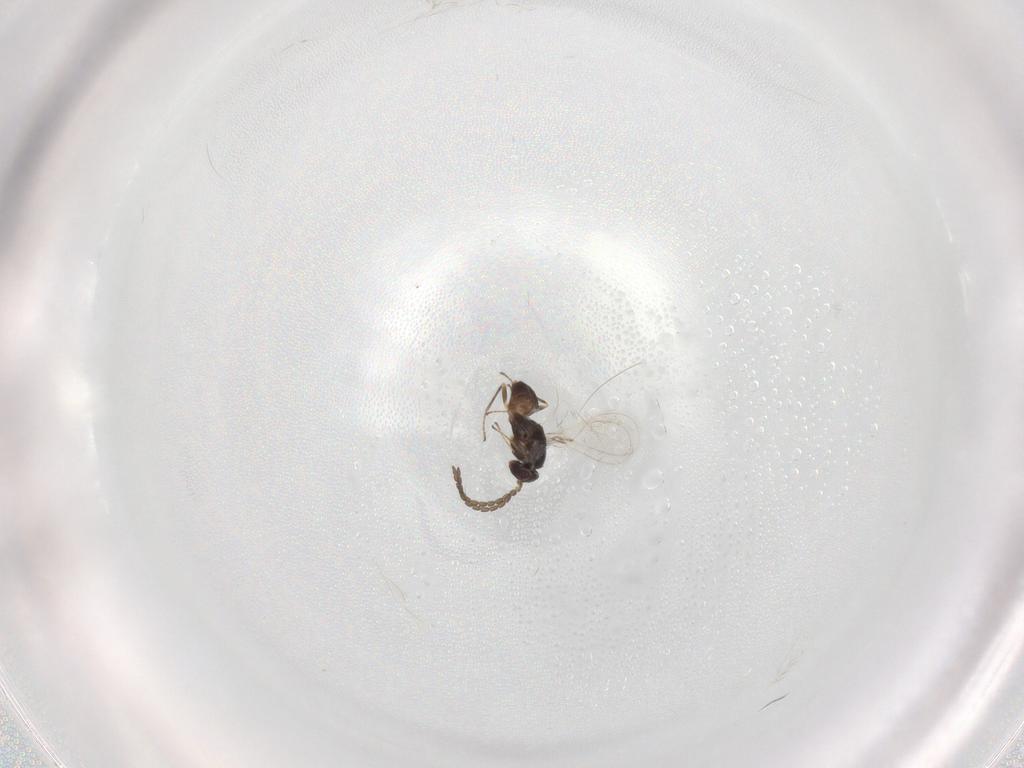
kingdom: Animalia
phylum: Arthropoda
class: Insecta
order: Hymenoptera
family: Mymaridae
